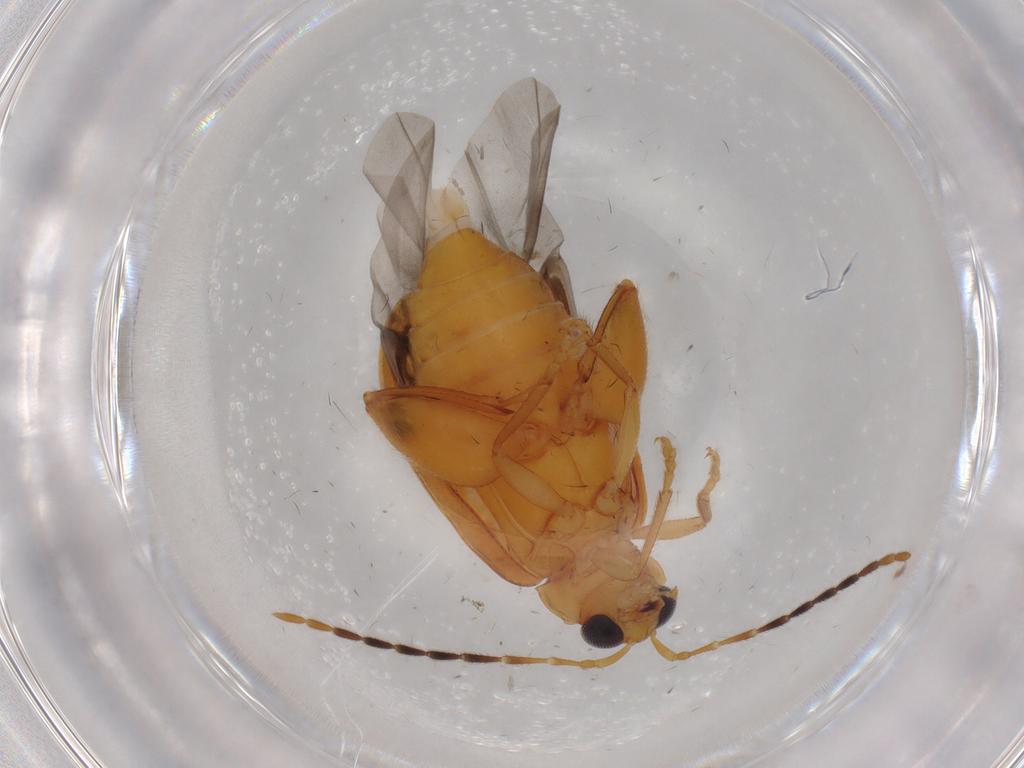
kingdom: Animalia
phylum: Arthropoda
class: Insecta
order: Coleoptera
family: Chrysomelidae
